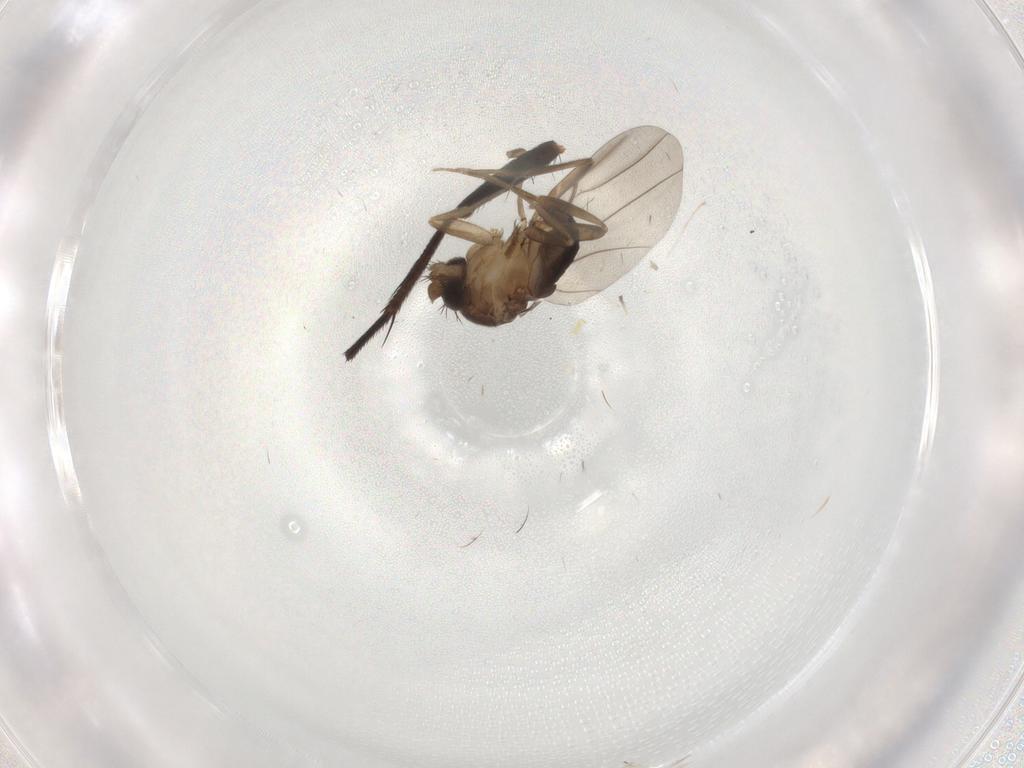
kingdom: Animalia
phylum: Arthropoda
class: Insecta
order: Diptera
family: Phoridae
